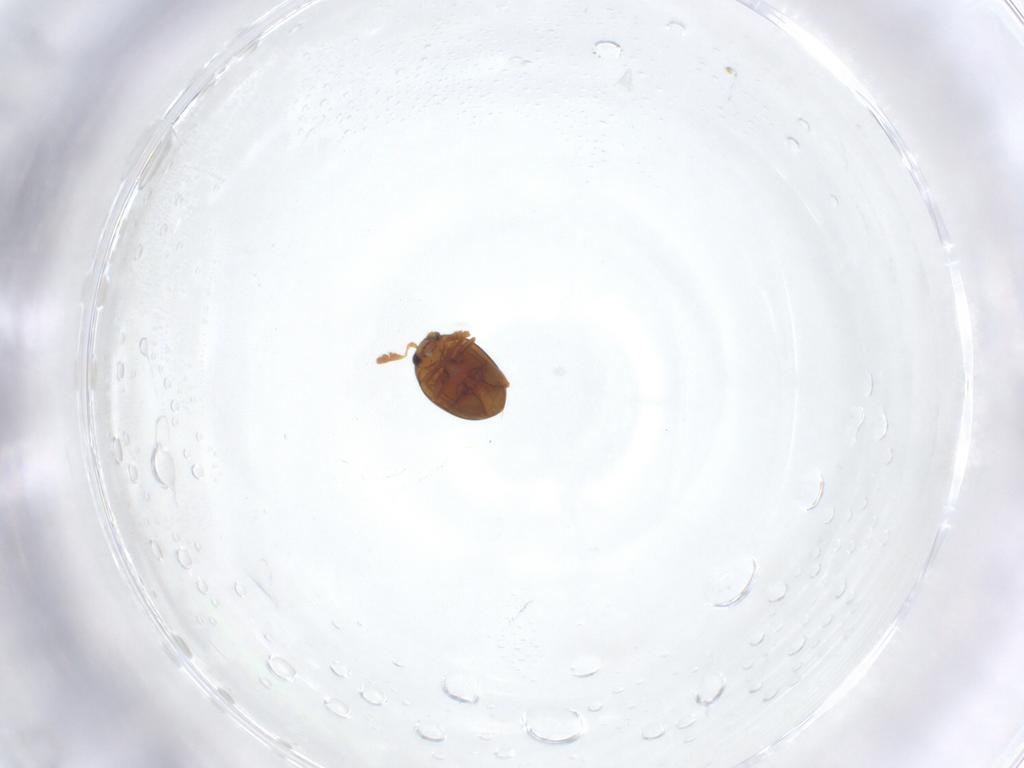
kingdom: Animalia
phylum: Arthropoda
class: Insecta
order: Coleoptera
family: Chrysomelidae
